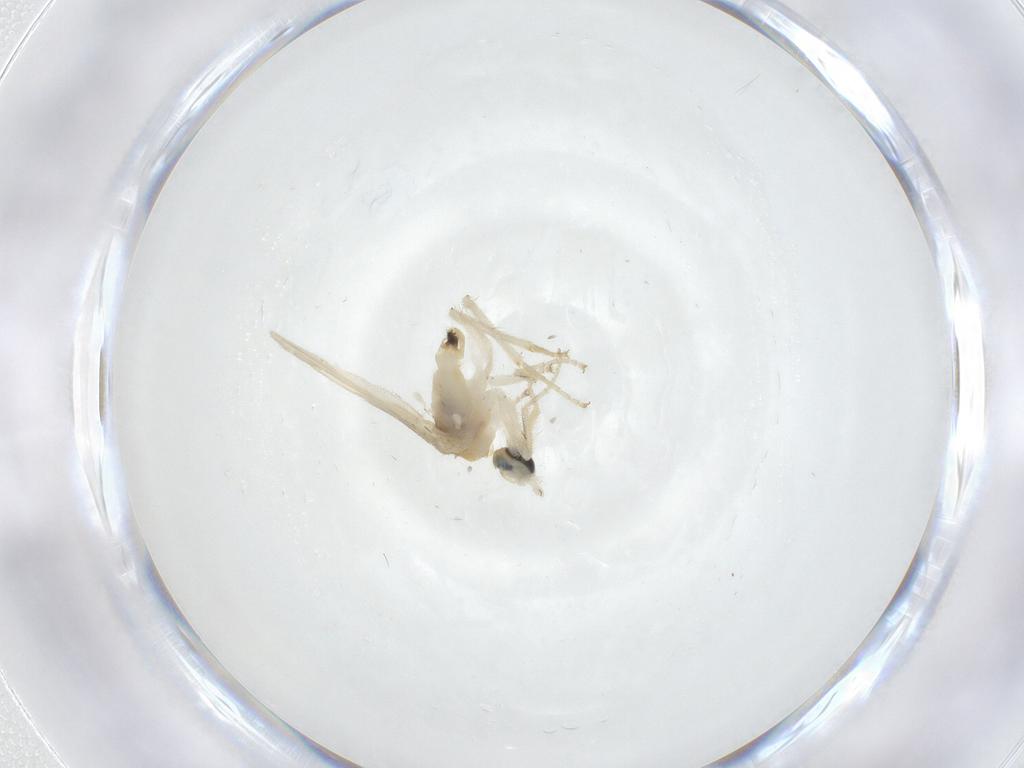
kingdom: Animalia
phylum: Arthropoda
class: Insecta
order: Diptera
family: Hybotidae
